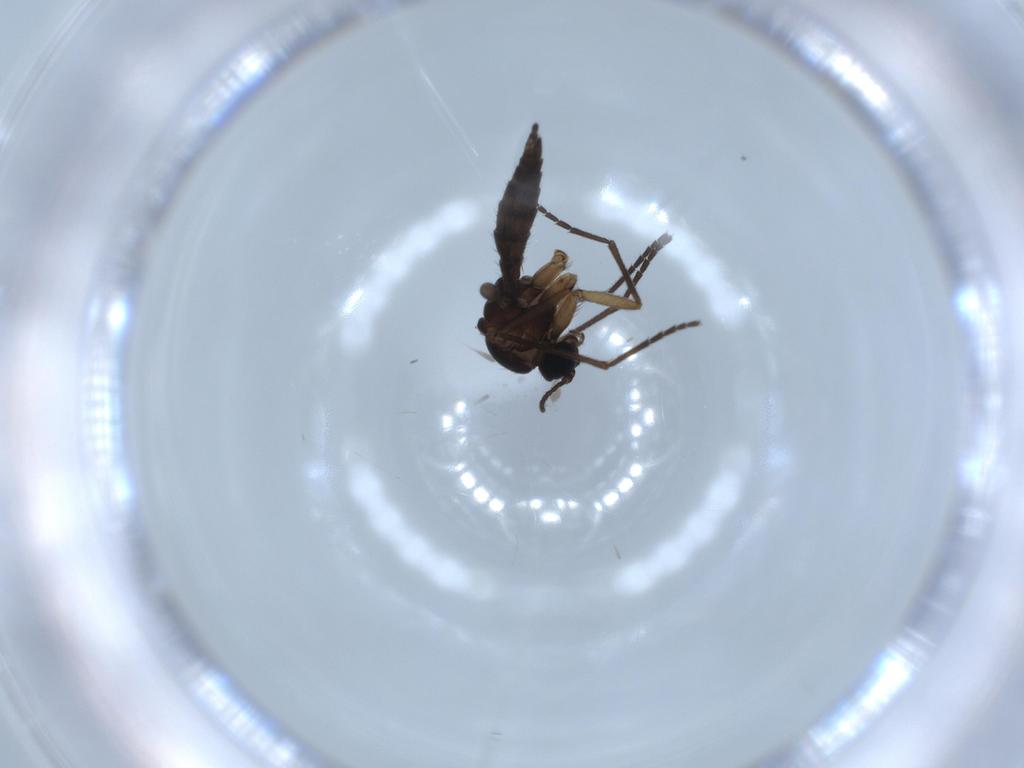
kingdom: Animalia
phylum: Arthropoda
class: Insecta
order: Diptera
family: Sciaridae
